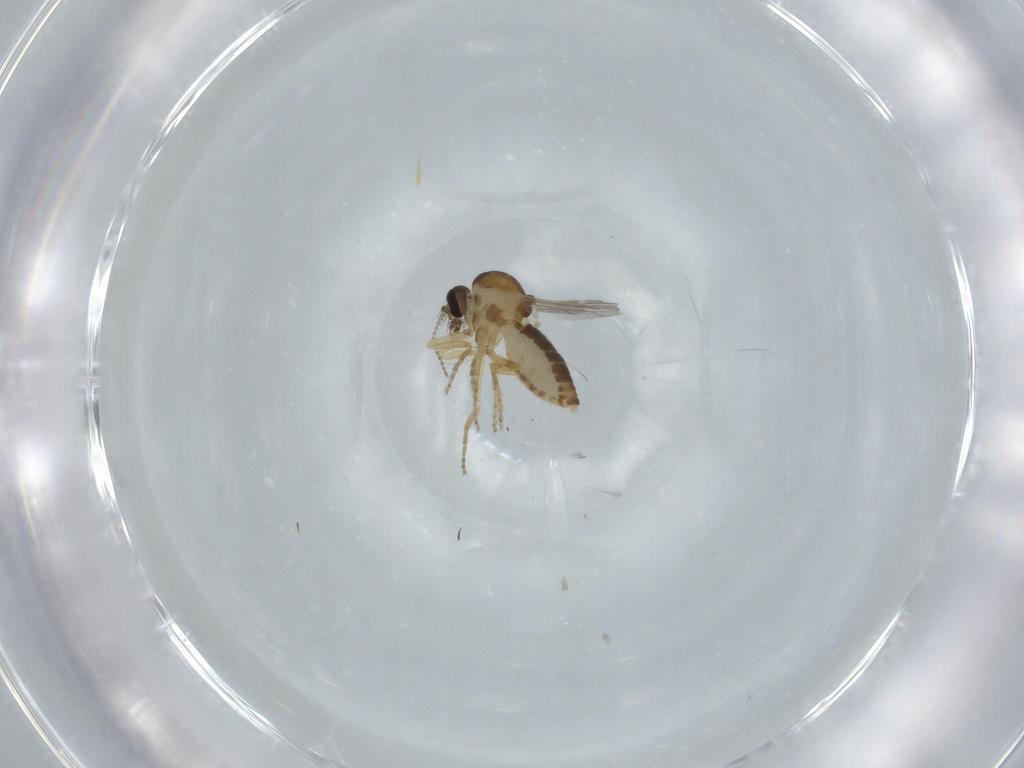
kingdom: Animalia
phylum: Arthropoda
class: Insecta
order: Diptera
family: Ceratopogonidae
